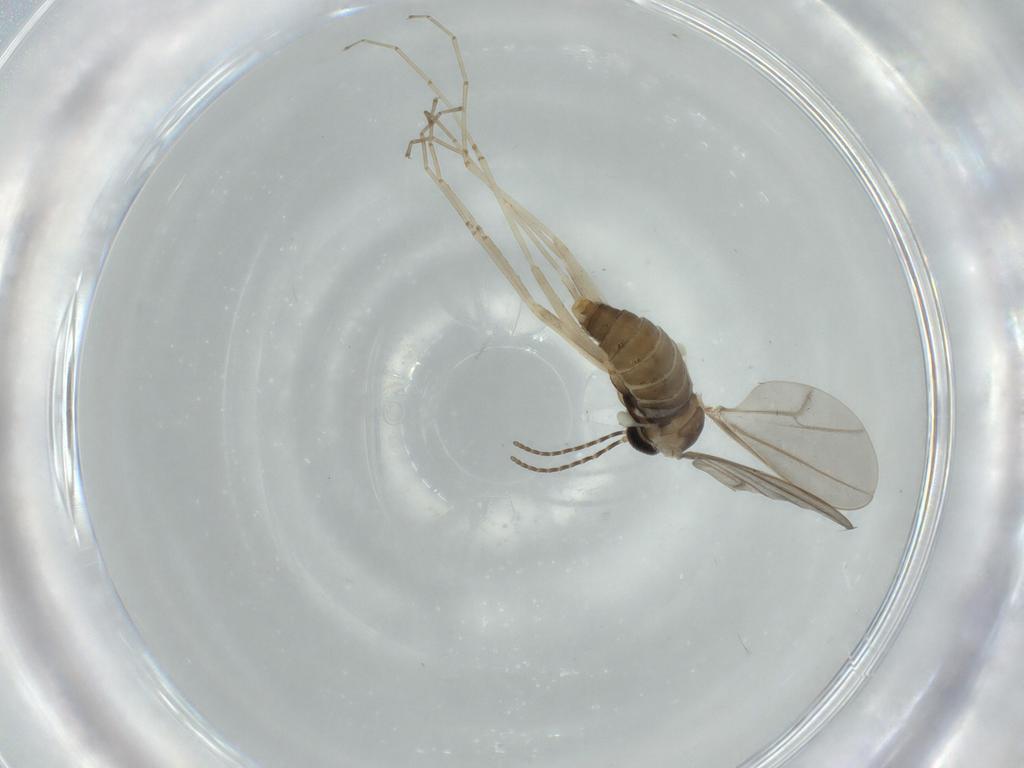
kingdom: Animalia
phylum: Arthropoda
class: Insecta
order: Diptera
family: Cecidomyiidae
